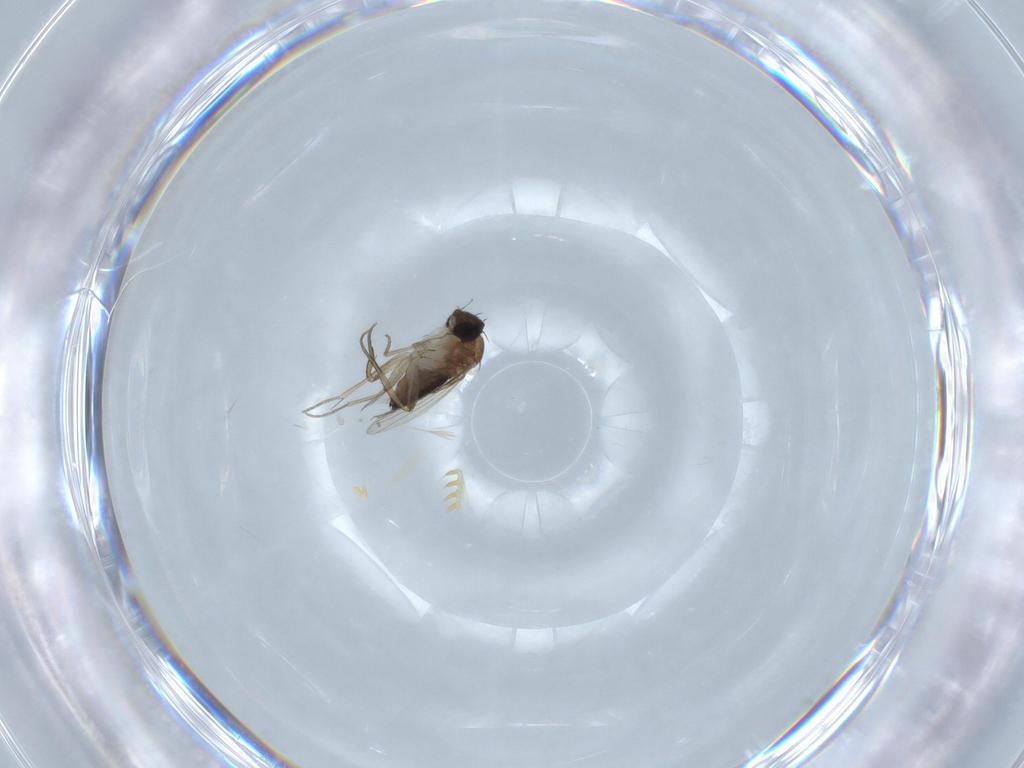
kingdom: Animalia
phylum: Arthropoda
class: Insecta
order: Diptera
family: Phoridae
